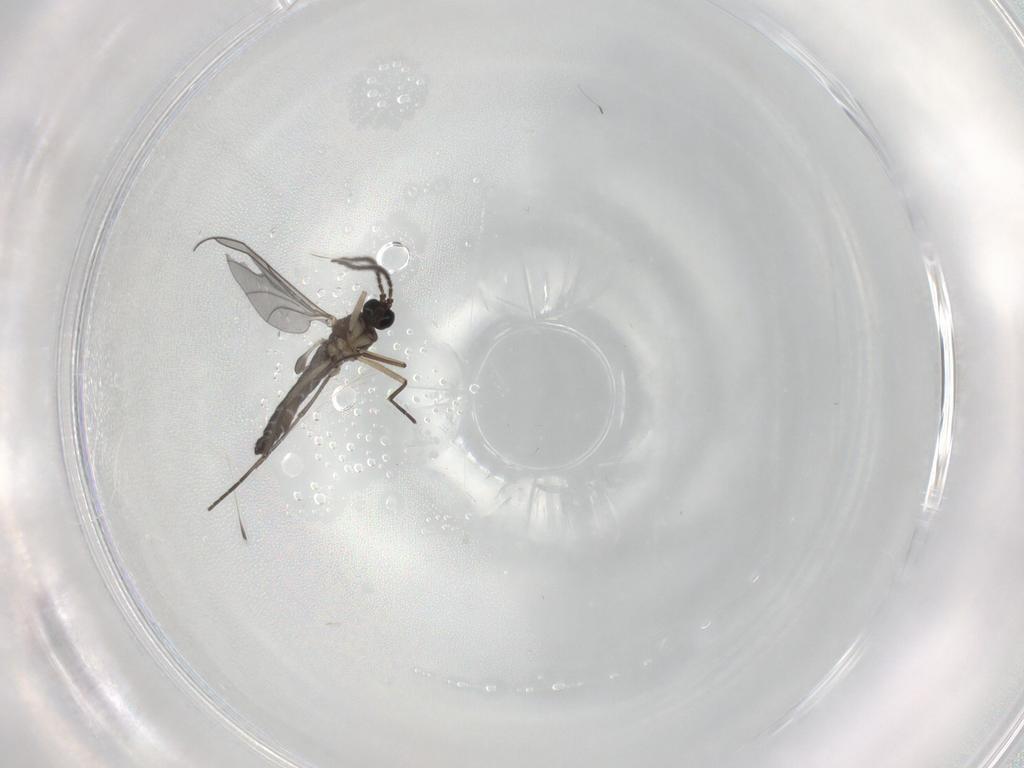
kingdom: Animalia
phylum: Arthropoda
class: Insecta
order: Diptera
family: Sciaridae
